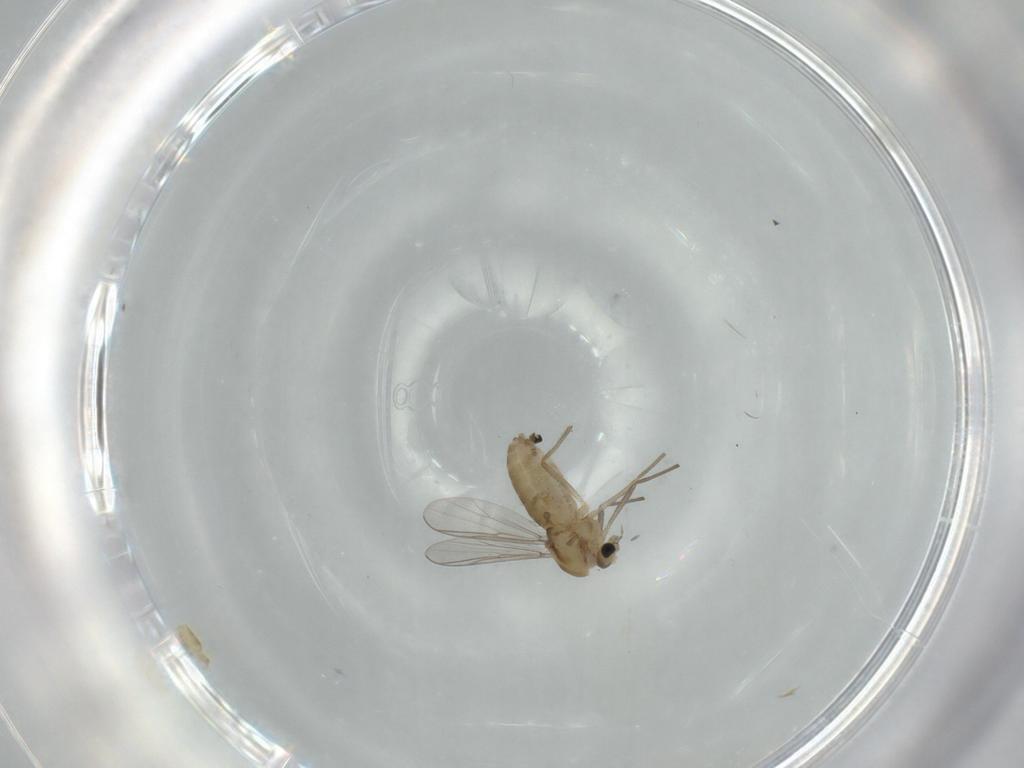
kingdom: Animalia
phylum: Arthropoda
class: Insecta
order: Diptera
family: Chironomidae
